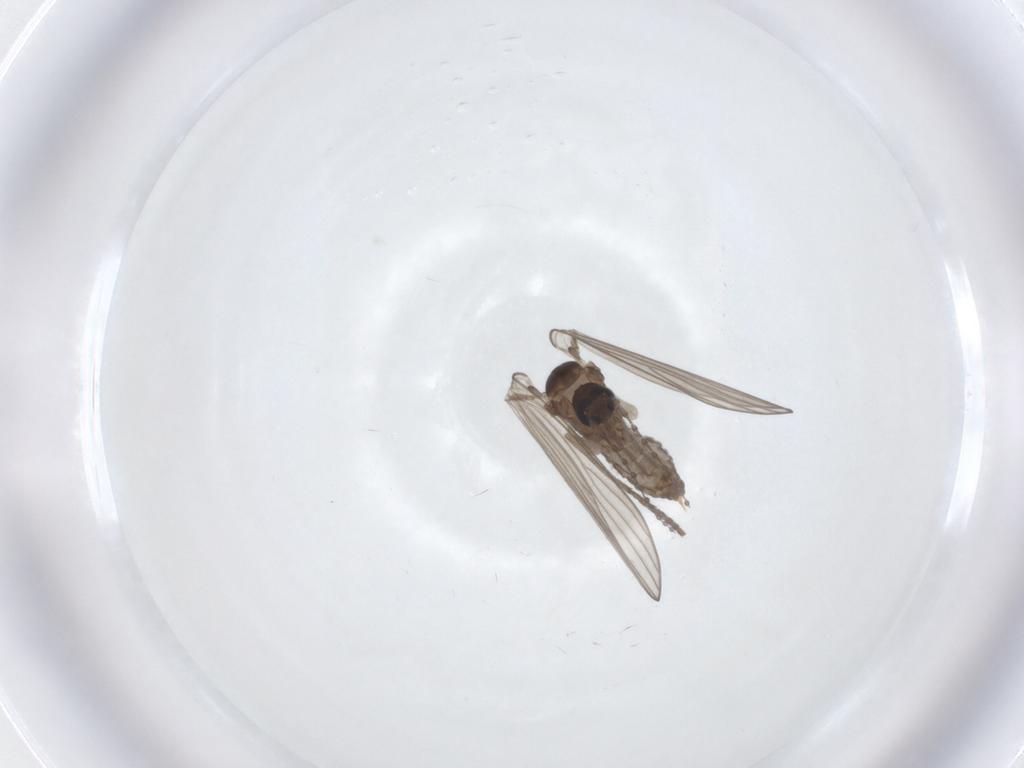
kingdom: Animalia
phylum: Arthropoda
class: Insecta
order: Diptera
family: Psychodidae
